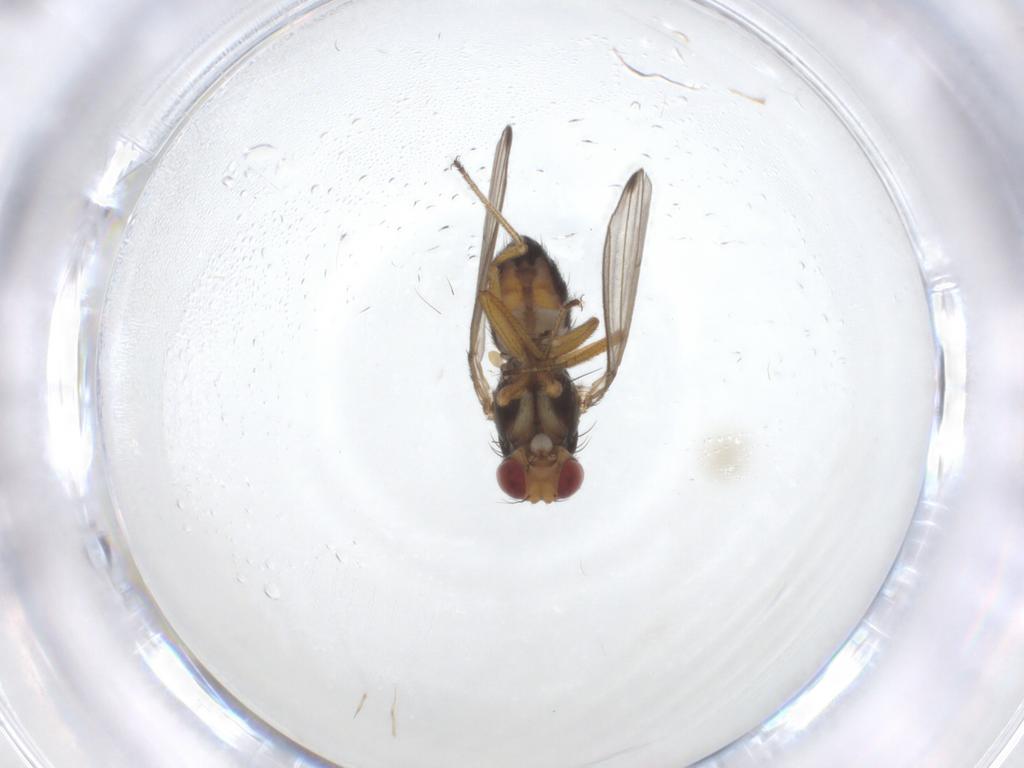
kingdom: Animalia
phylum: Arthropoda
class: Insecta
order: Diptera
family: Drosophilidae
